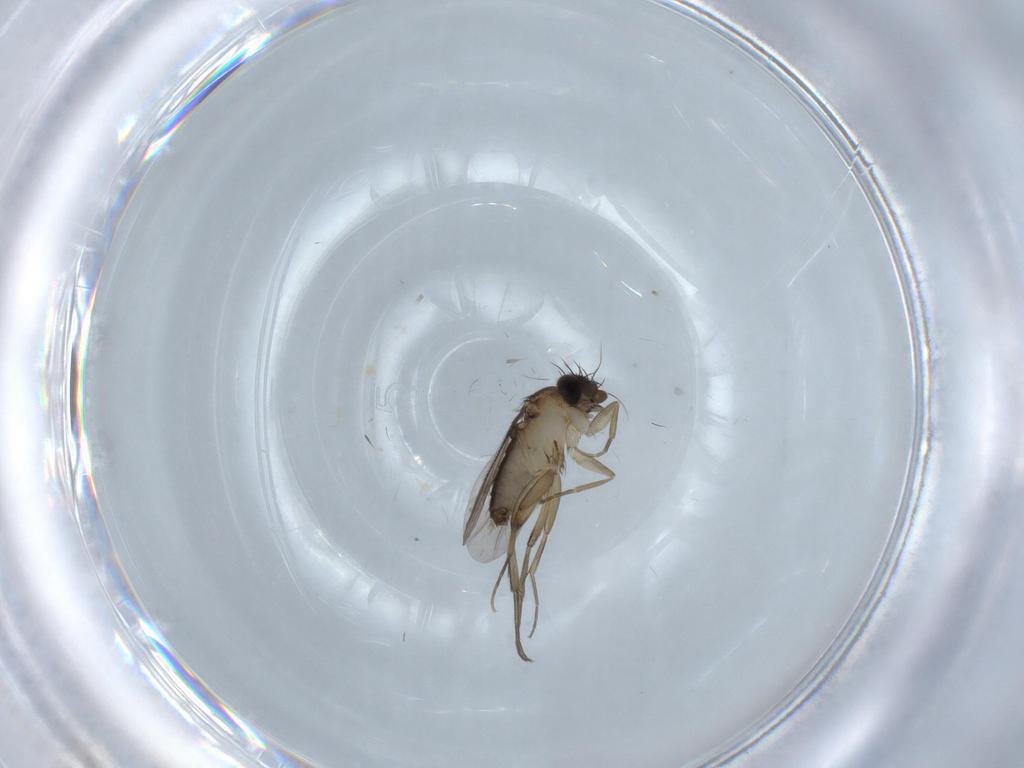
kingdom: Animalia
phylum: Arthropoda
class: Insecta
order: Diptera
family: Phoridae
